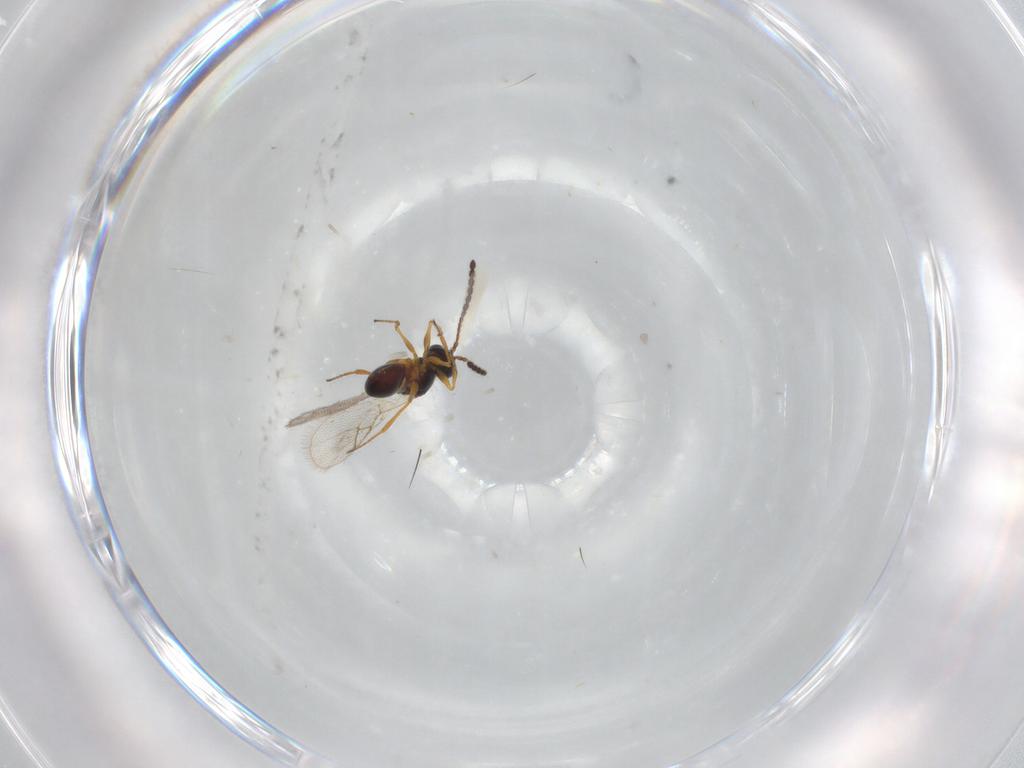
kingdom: Animalia
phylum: Arthropoda
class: Insecta
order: Hymenoptera
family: Figitidae
